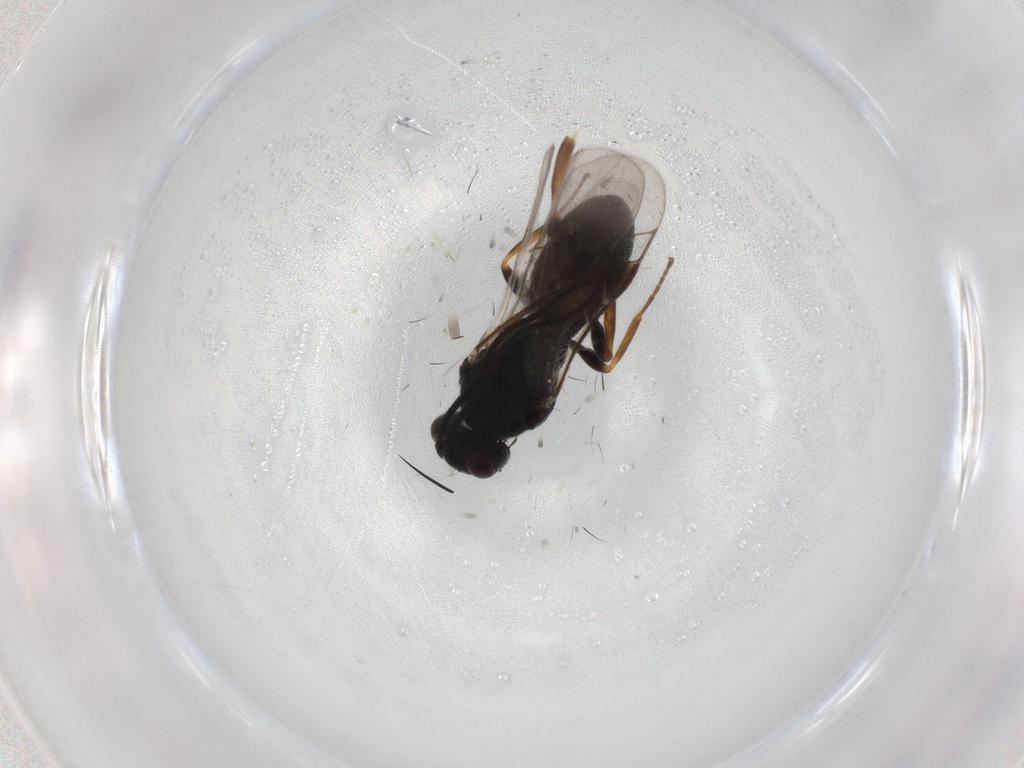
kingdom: Animalia
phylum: Arthropoda
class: Insecta
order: Hymenoptera
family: Braconidae
